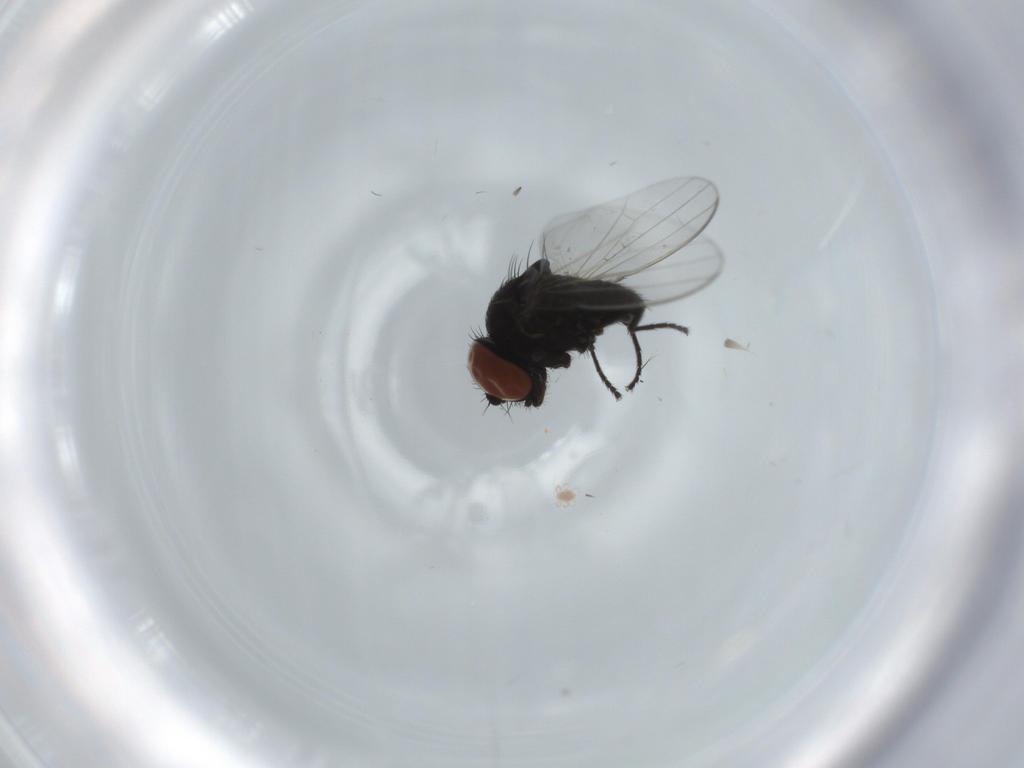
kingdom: Animalia
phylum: Arthropoda
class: Insecta
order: Diptera
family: Milichiidae
